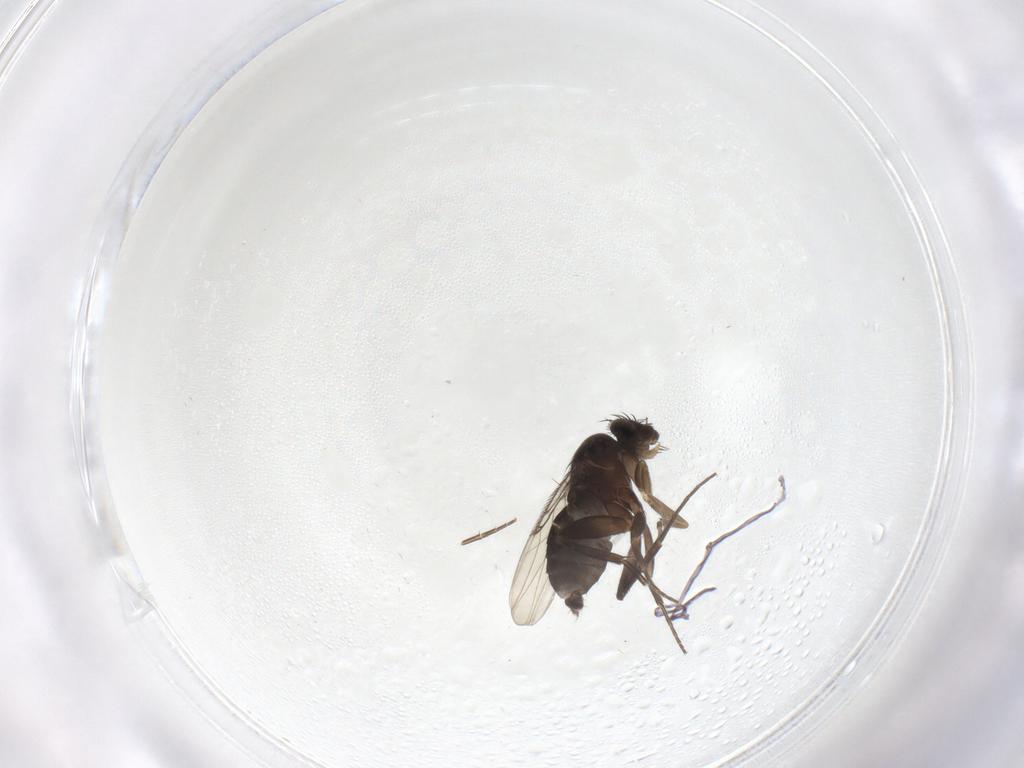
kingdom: Animalia
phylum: Arthropoda
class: Insecta
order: Diptera
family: Phoridae
